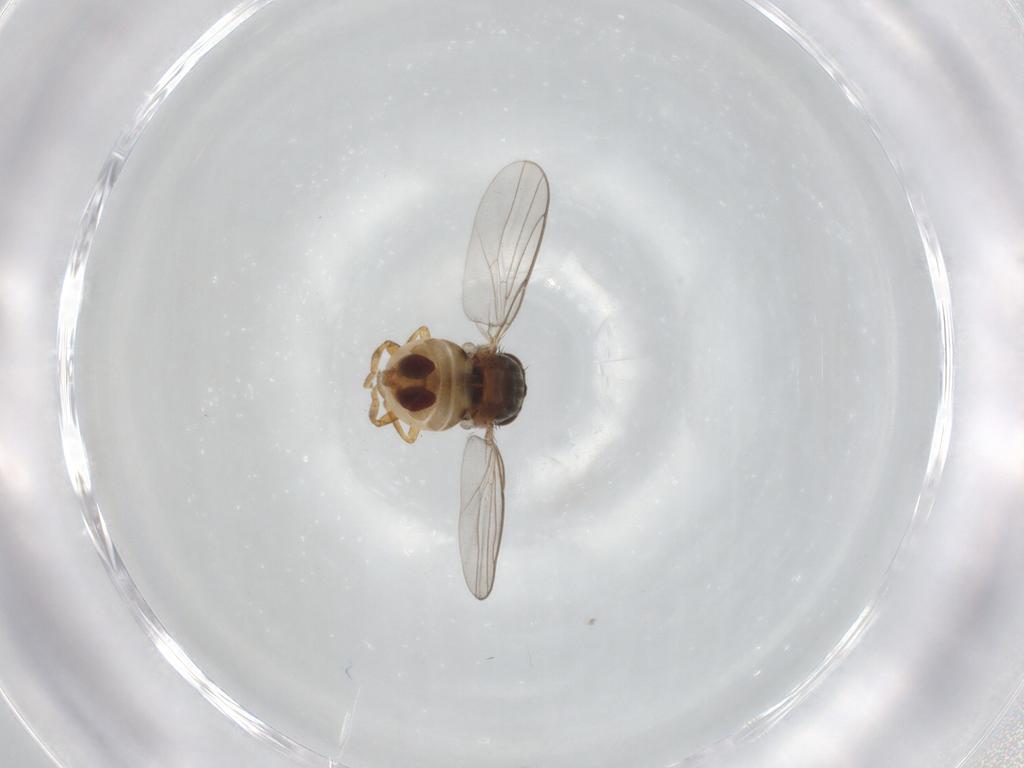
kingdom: Animalia
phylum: Arthropoda
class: Insecta
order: Diptera
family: Chloropidae
